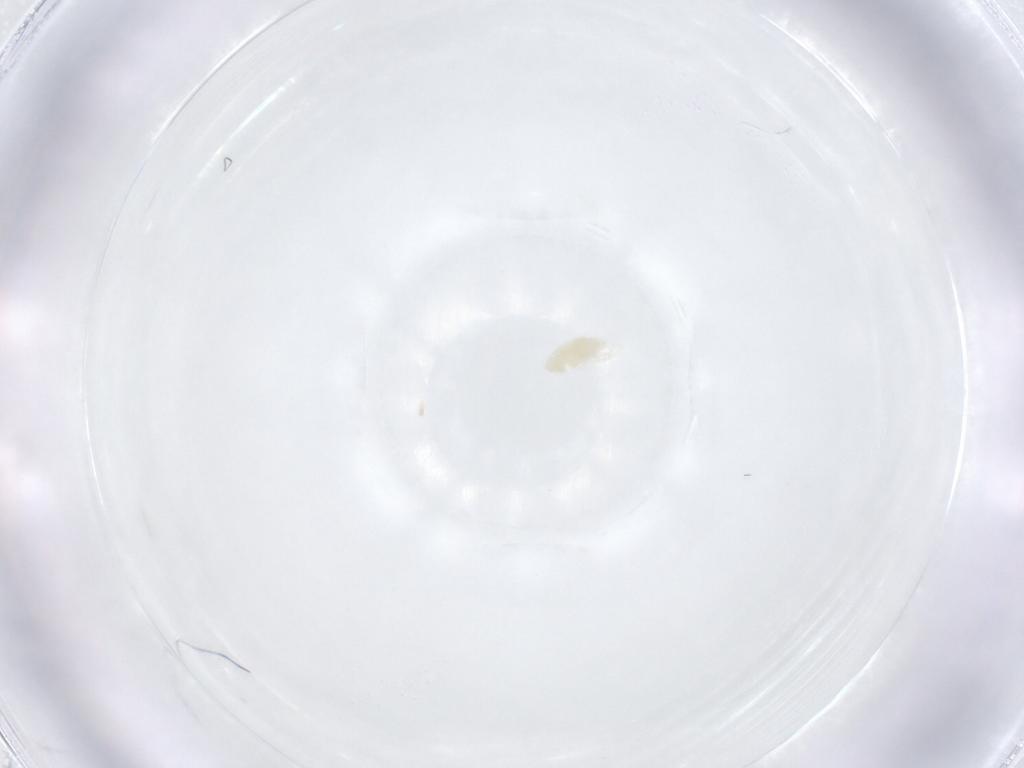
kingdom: Animalia
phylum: Arthropoda
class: Arachnida
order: Trombidiformes
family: Eupodidae
